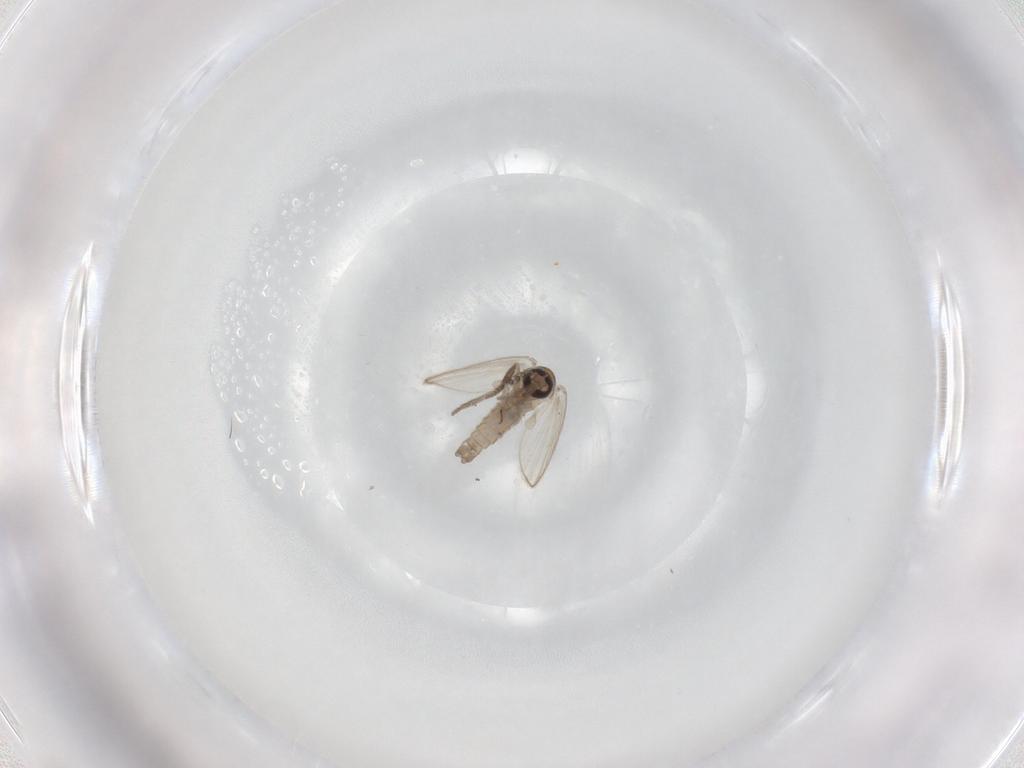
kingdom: Animalia
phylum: Arthropoda
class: Insecta
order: Diptera
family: Psychodidae
